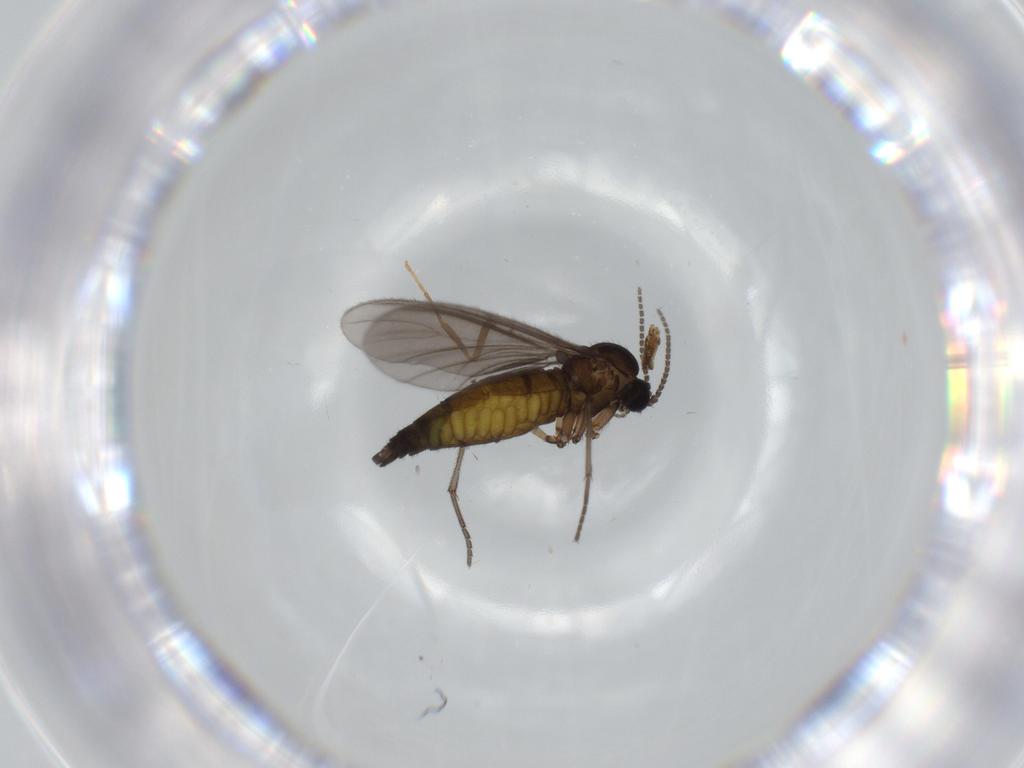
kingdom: Animalia
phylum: Arthropoda
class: Insecta
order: Diptera
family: Sciaridae
